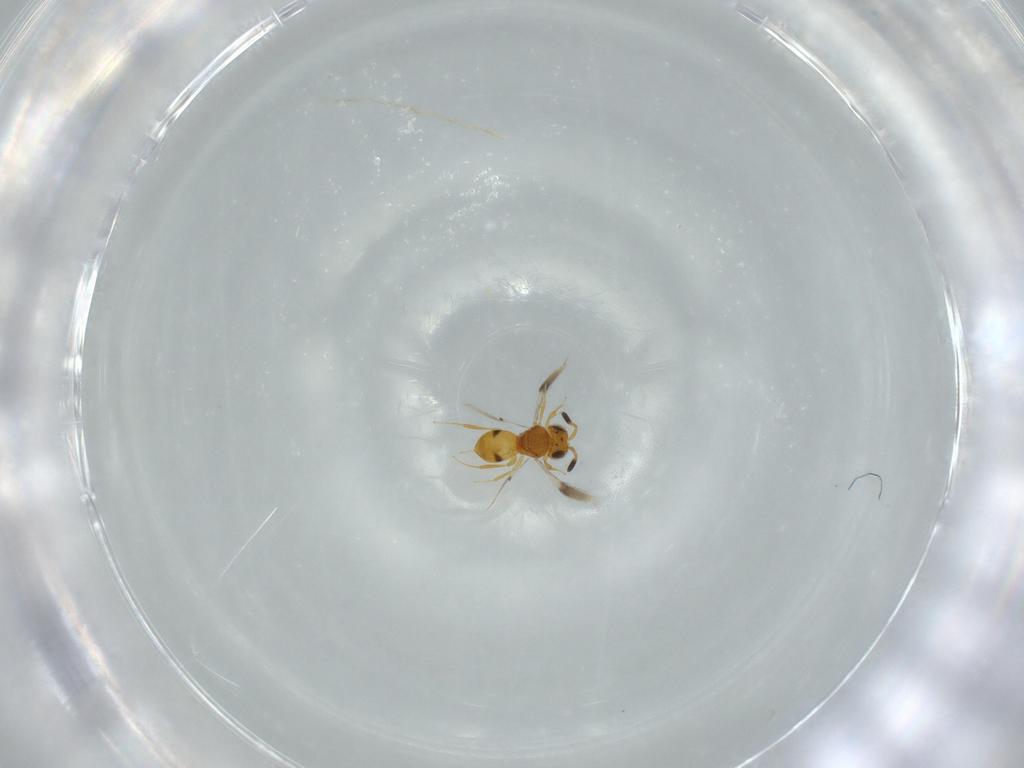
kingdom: Animalia
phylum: Arthropoda
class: Insecta
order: Hymenoptera
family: Scelionidae
